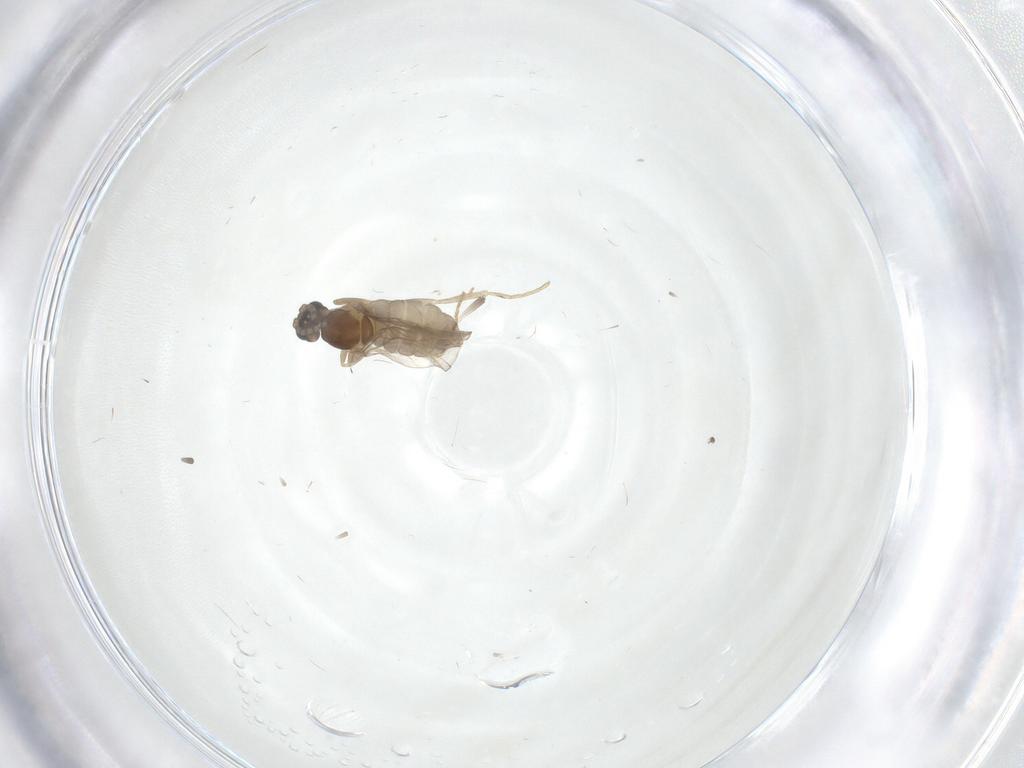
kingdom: Animalia
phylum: Arthropoda
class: Insecta
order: Diptera
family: Cecidomyiidae
